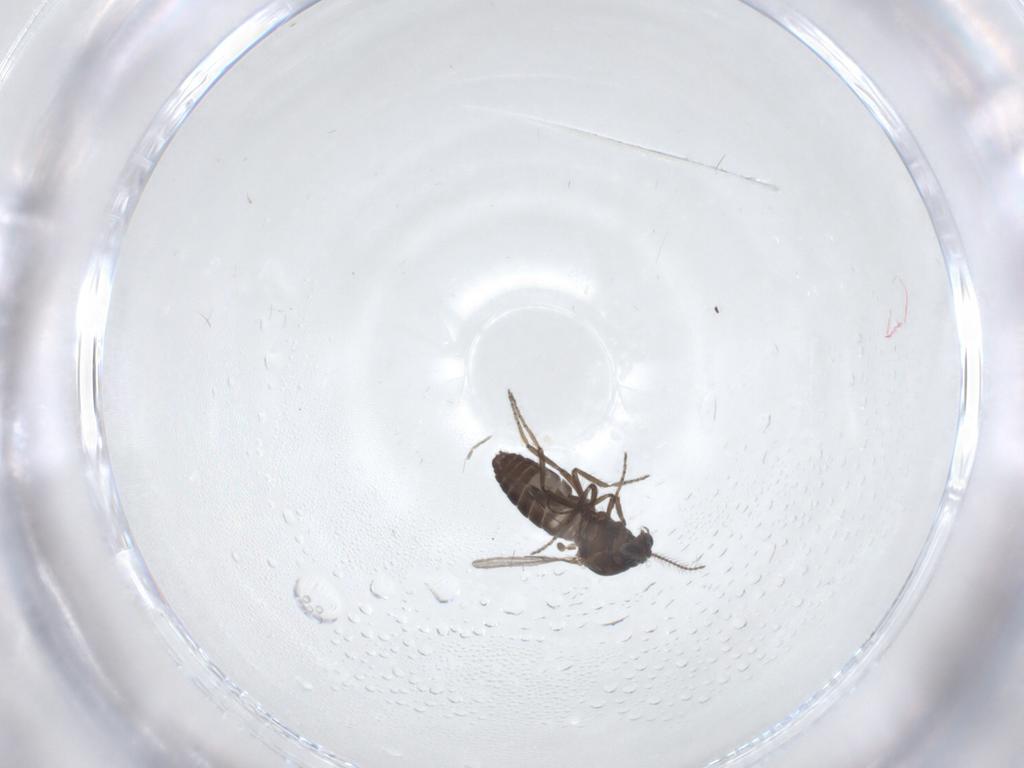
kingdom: Animalia
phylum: Arthropoda
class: Insecta
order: Diptera
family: Ceratopogonidae
